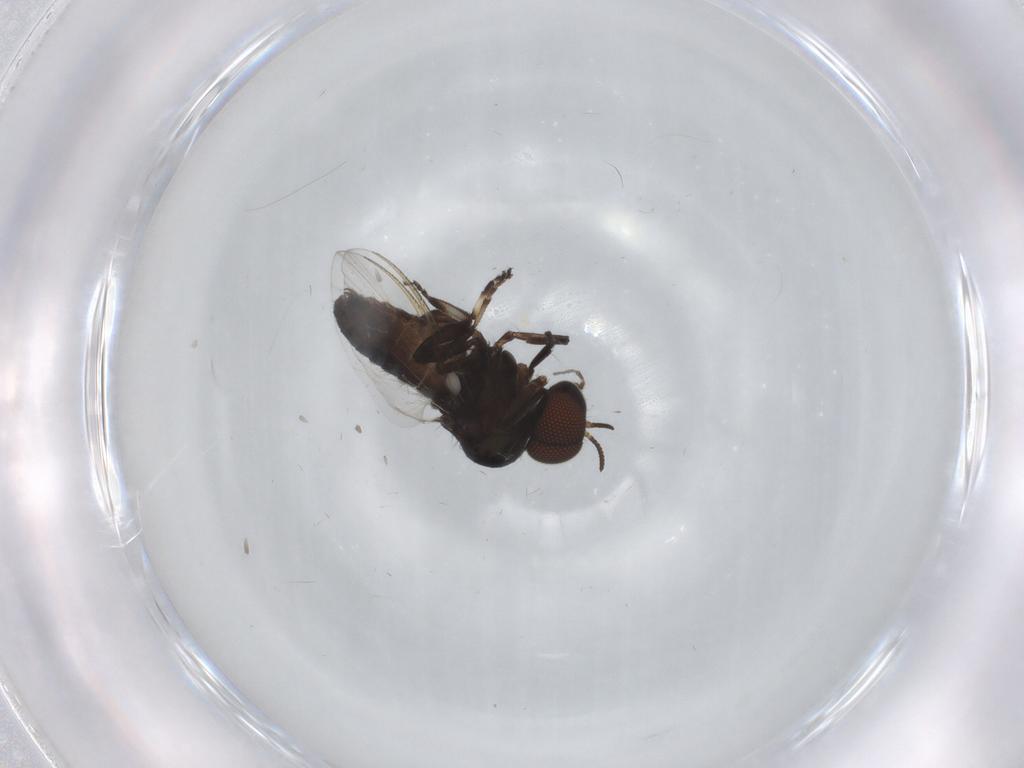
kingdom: Animalia
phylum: Arthropoda
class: Insecta
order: Diptera
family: Simuliidae
